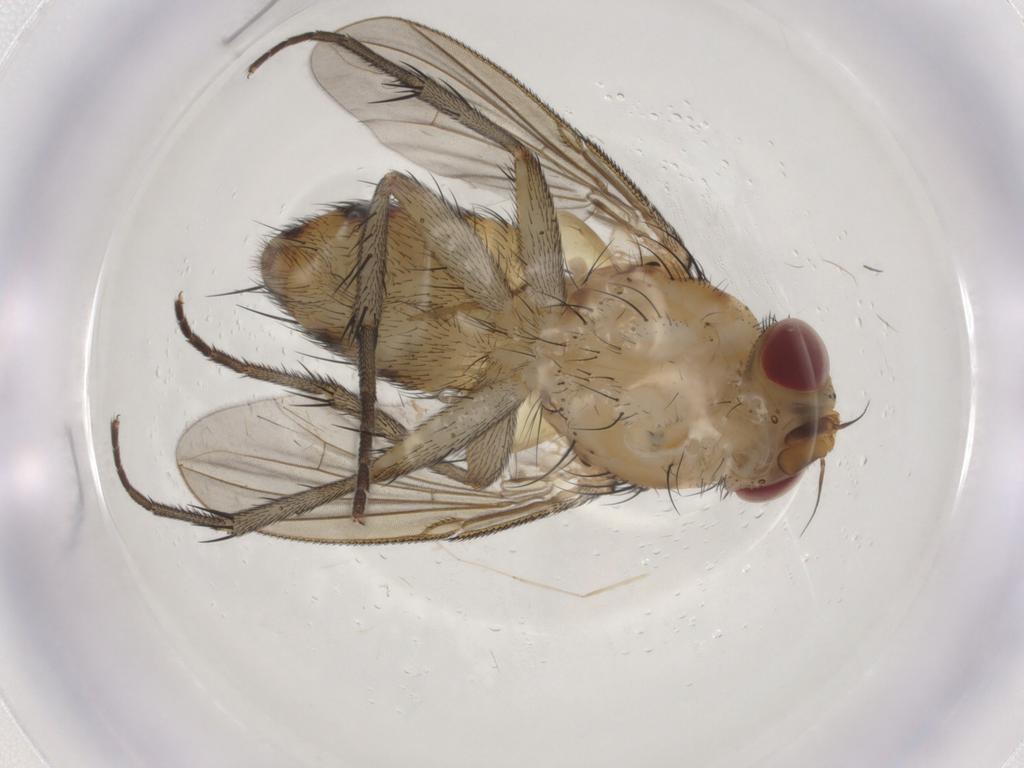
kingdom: Animalia
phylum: Arthropoda
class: Insecta
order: Diptera
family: Tachinidae
